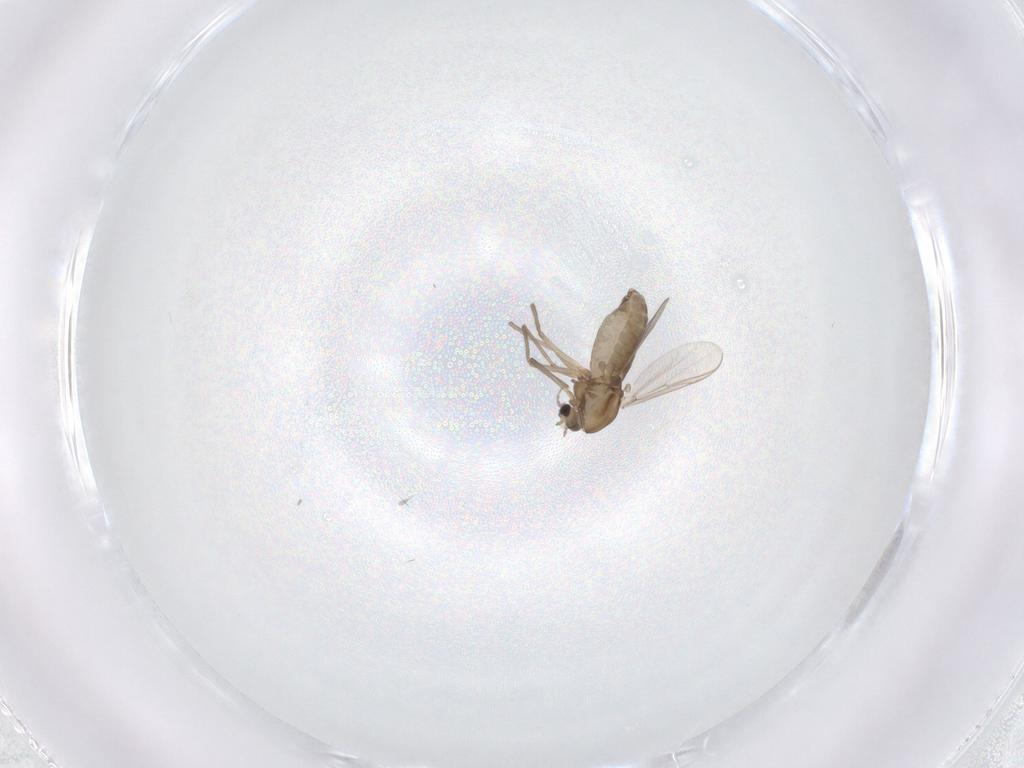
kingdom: Animalia
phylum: Arthropoda
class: Insecta
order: Diptera
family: Chironomidae
